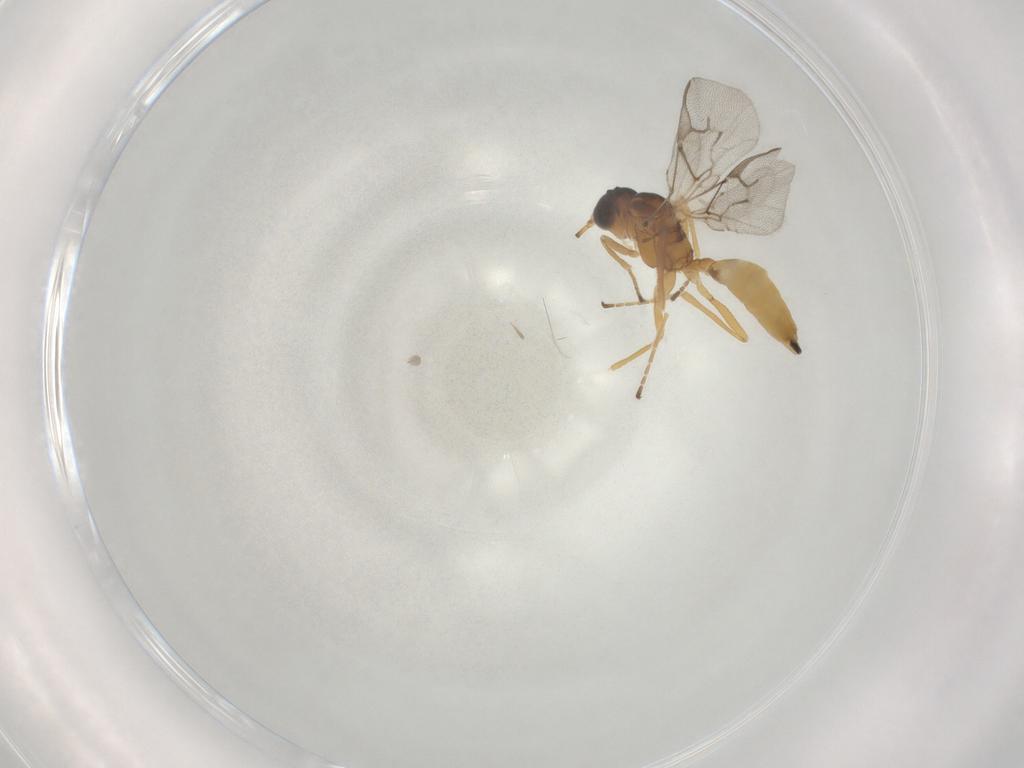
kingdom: Animalia
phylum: Arthropoda
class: Insecta
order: Hymenoptera
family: Braconidae
